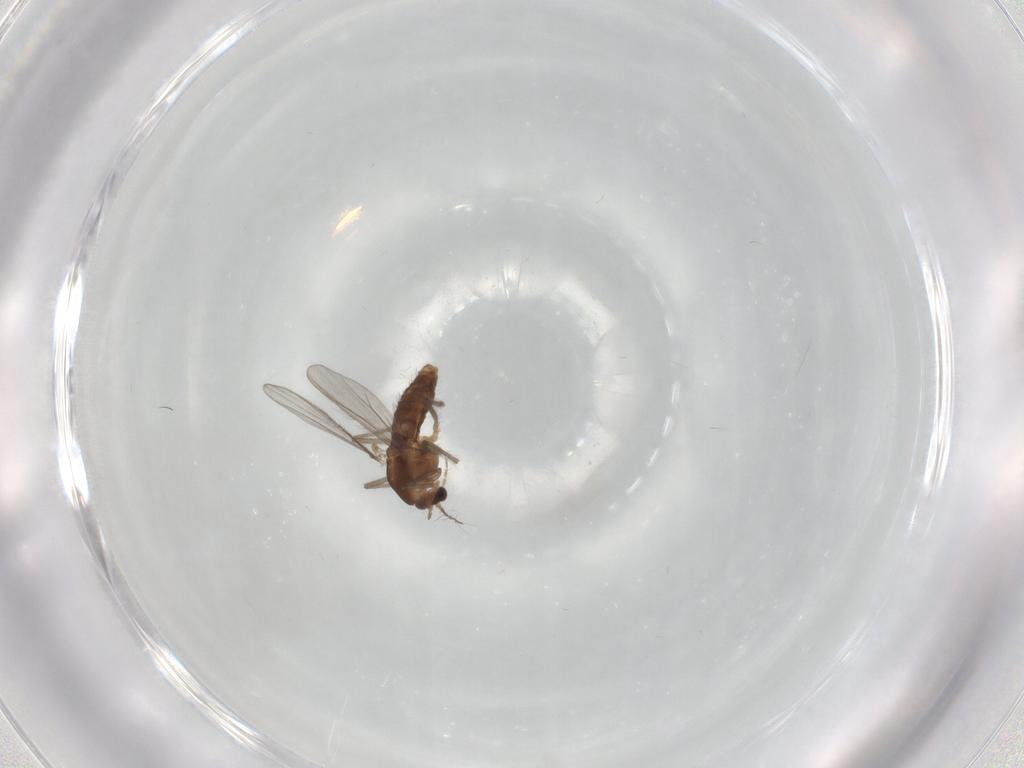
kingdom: Animalia
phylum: Arthropoda
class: Insecta
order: Diptera
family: Chironomidae
